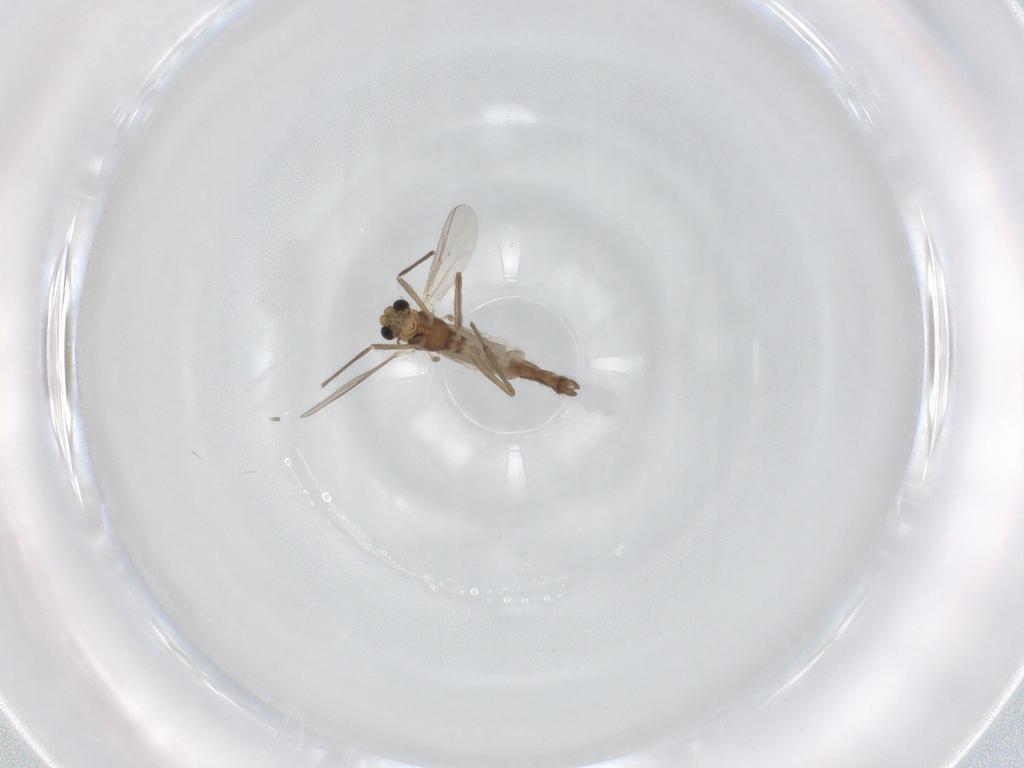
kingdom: Animalia
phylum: Arthropoda
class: Insecta
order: Diptera
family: Chironomidae
